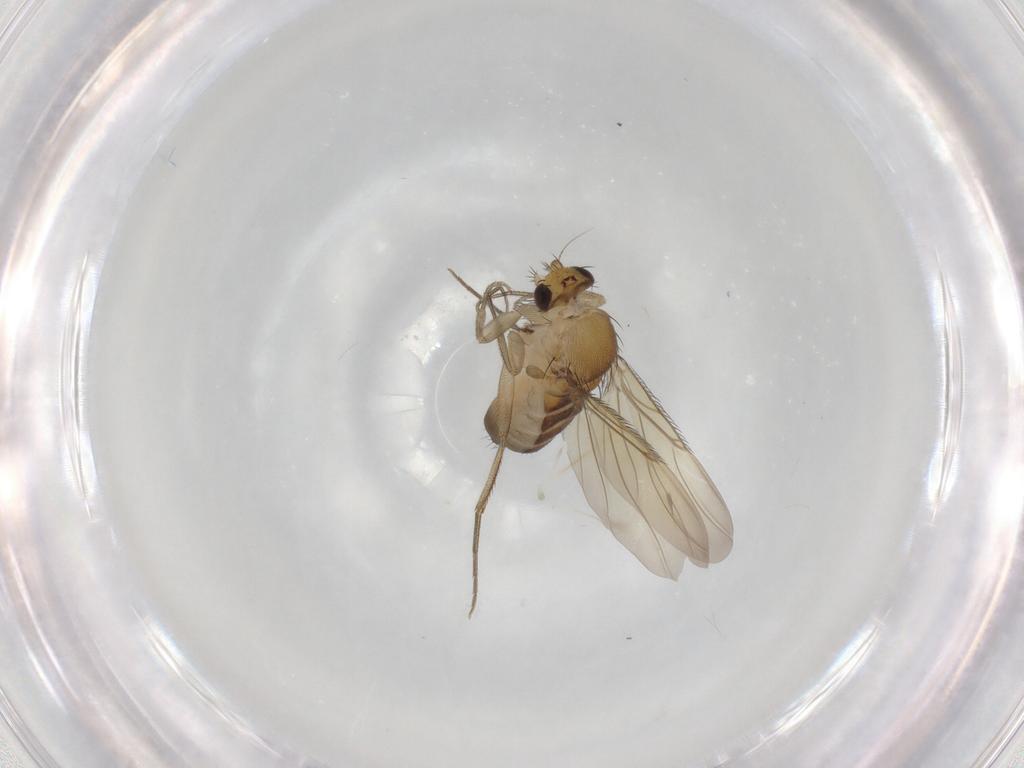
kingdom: Animalia
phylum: Arthropoda
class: Insecta
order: Diptera
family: Phoridae
